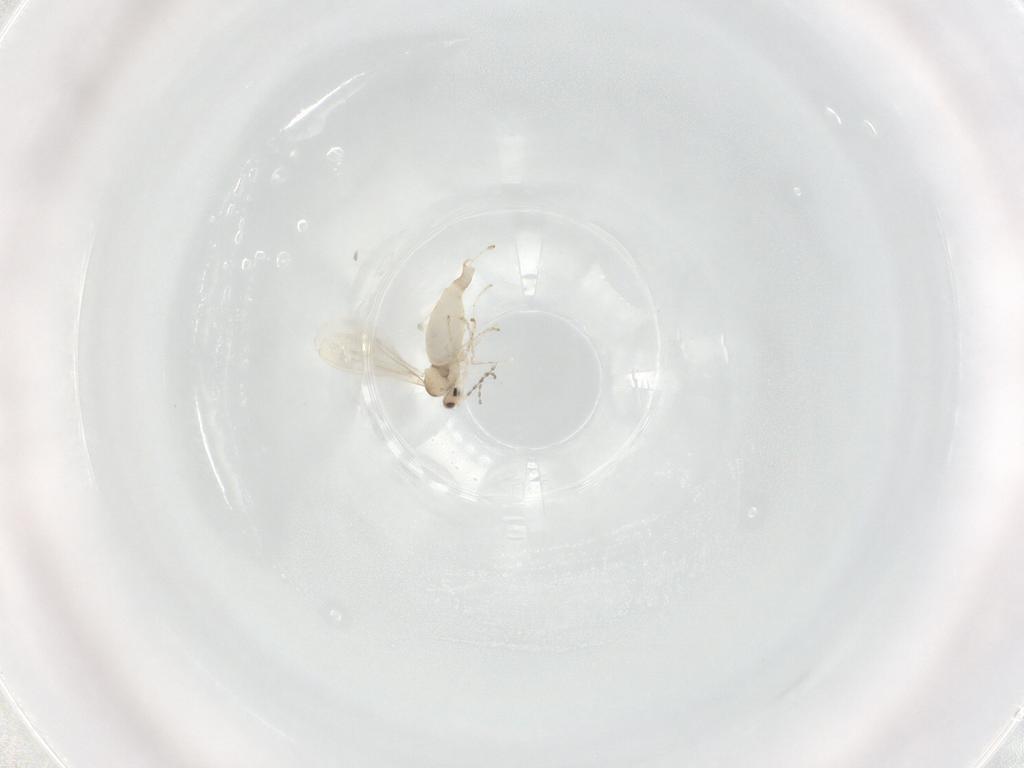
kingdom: Animalia
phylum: Arthropoda
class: Insecta
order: Diptera
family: Cecidomyiidae
